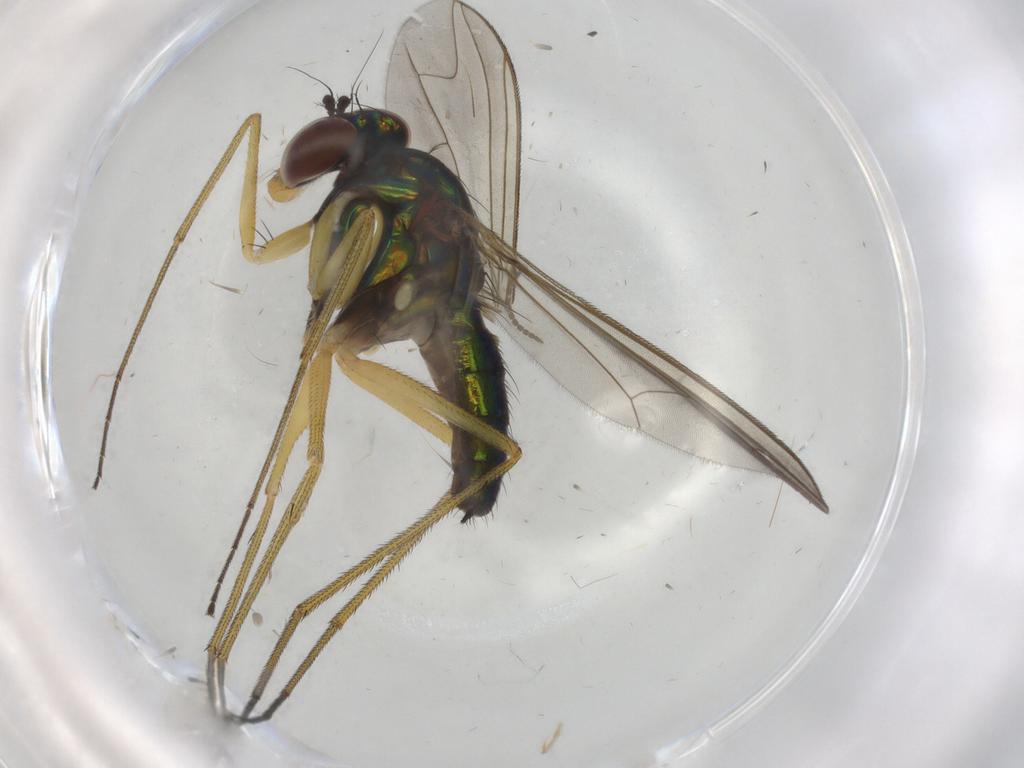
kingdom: Animalia
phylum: Arthropoda
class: Insecta
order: Diptera
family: Dolichopodidae
